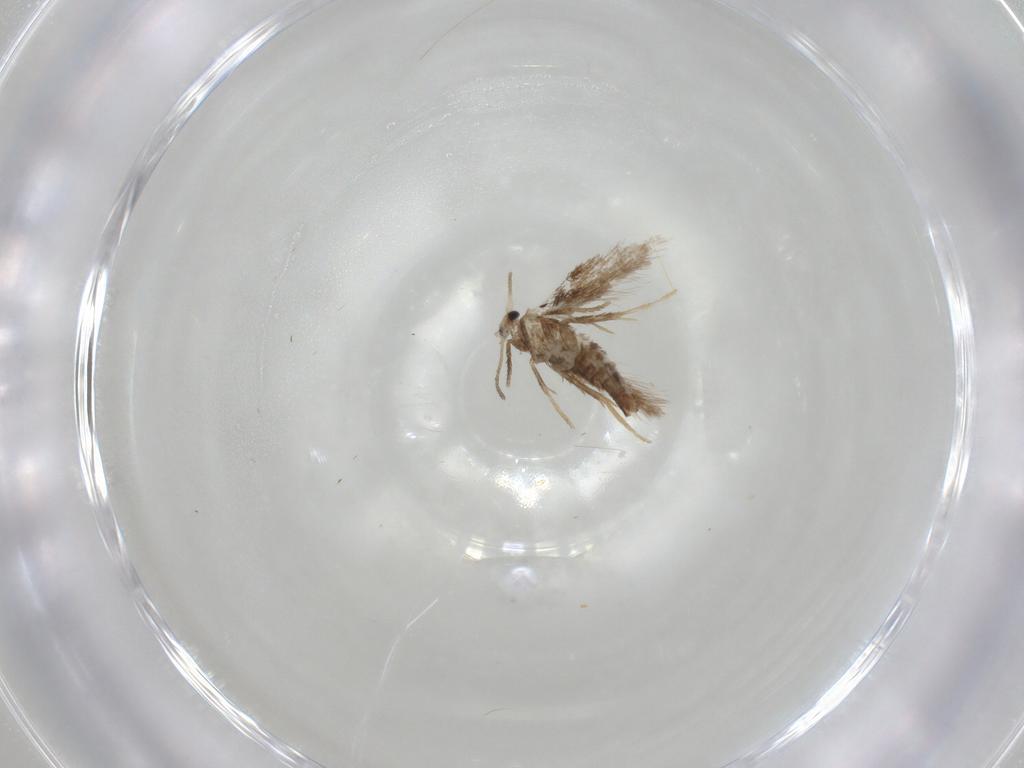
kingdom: Animalia
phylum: Arthropoda
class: Insecta
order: Lepidoptera
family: Nepticulidae
